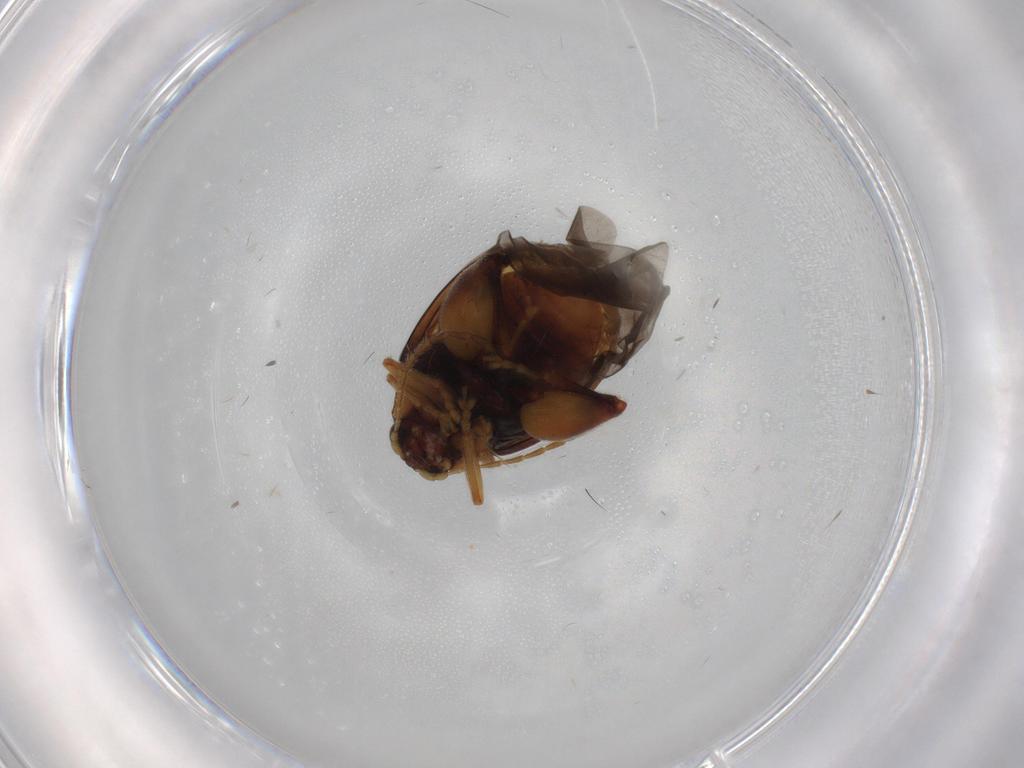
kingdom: Animalia
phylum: Arthropoda
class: Insecta
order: Coleoptera
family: Chrysomelidae
